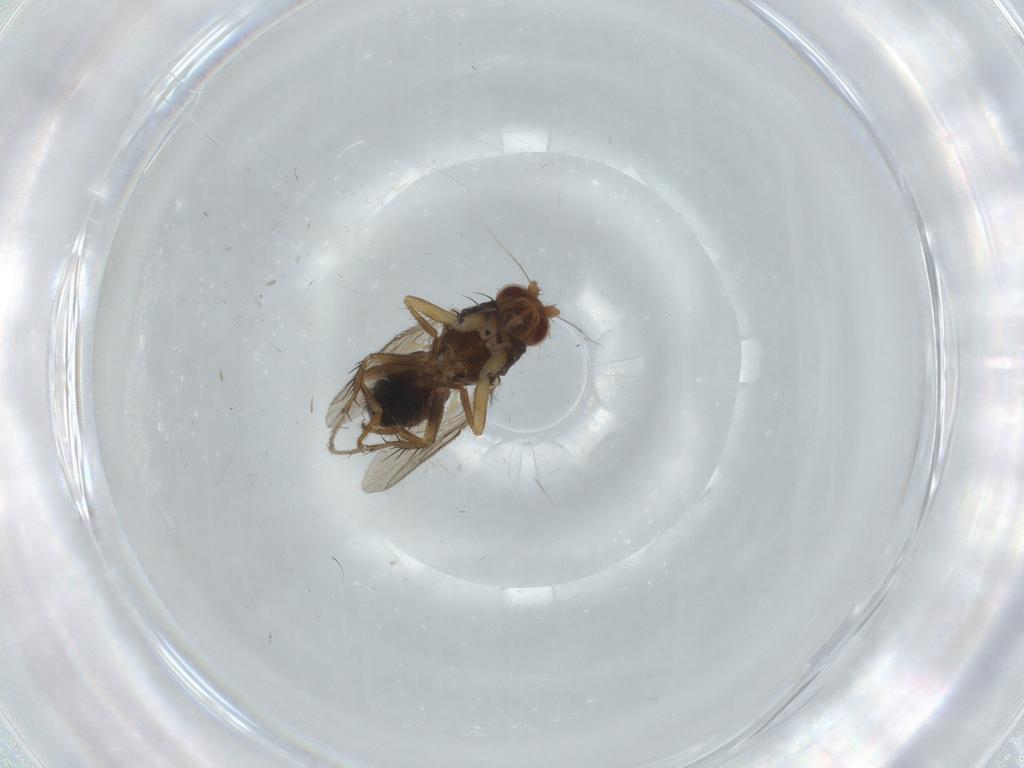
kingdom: Animalia
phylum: Arthropoda
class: Insecta
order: Diptera
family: Sphaeroceridae
